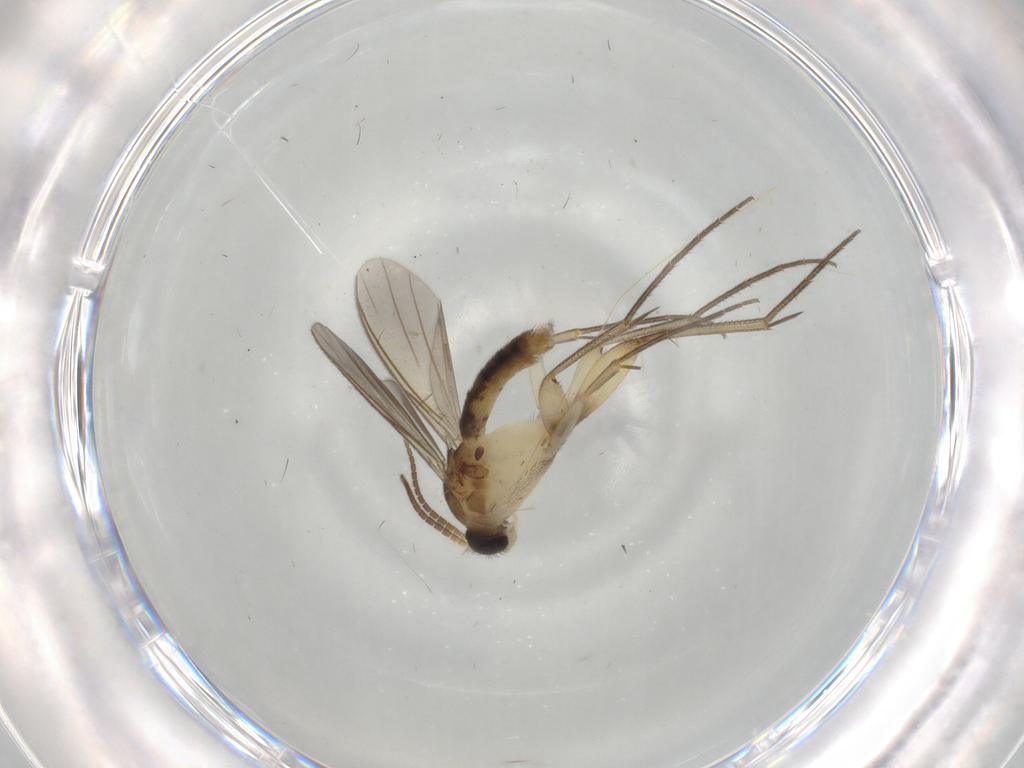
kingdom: Animalia
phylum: Arthropoda
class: Insecta
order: Diptera
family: Mycetophilidae
